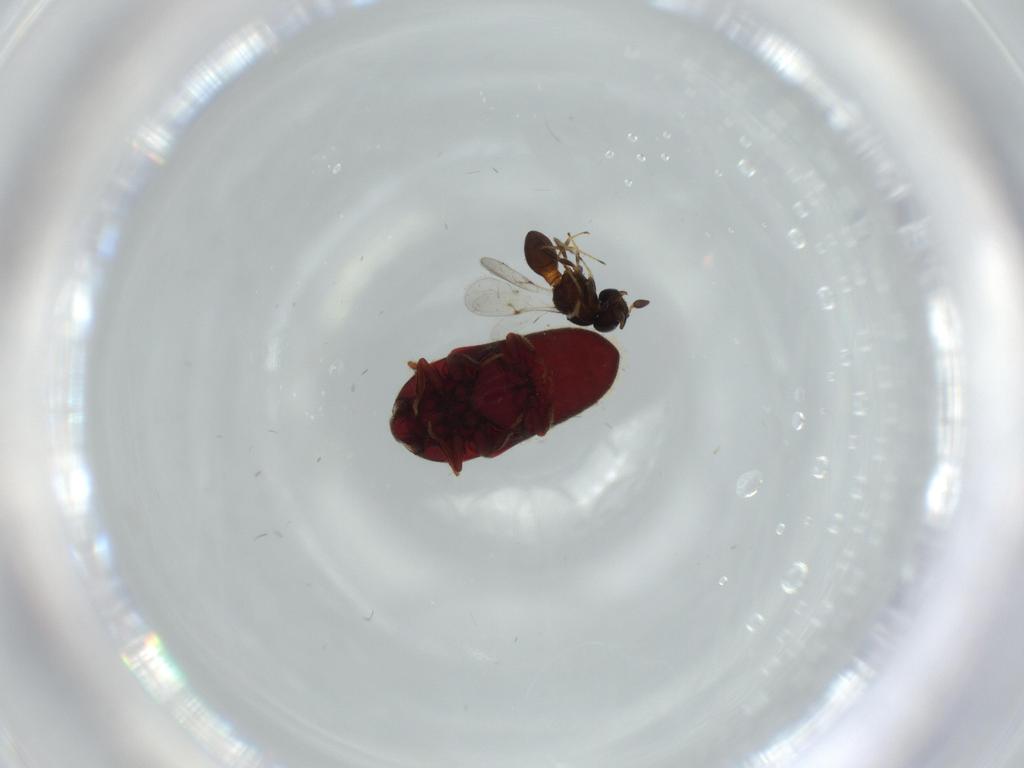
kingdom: Animalia
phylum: Arthropoda
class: Insecta
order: Coleoptera
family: Throscidae
